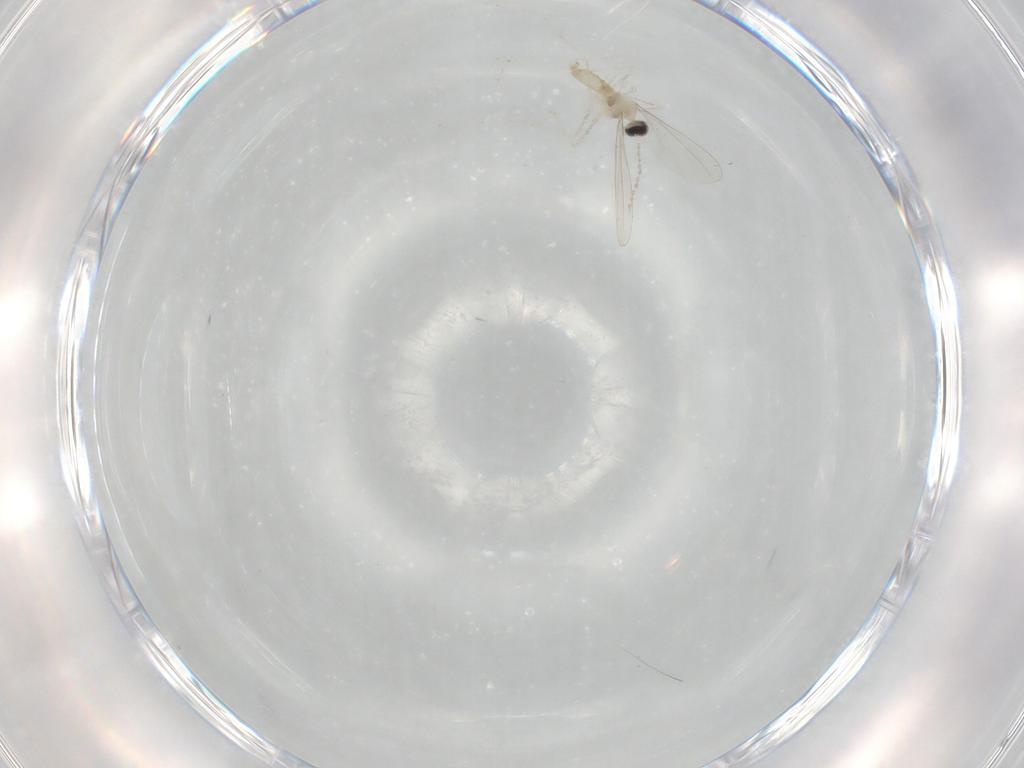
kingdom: Animalia
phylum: Arthropoda
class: Insecta
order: Diptera
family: Cecidomyiidae
